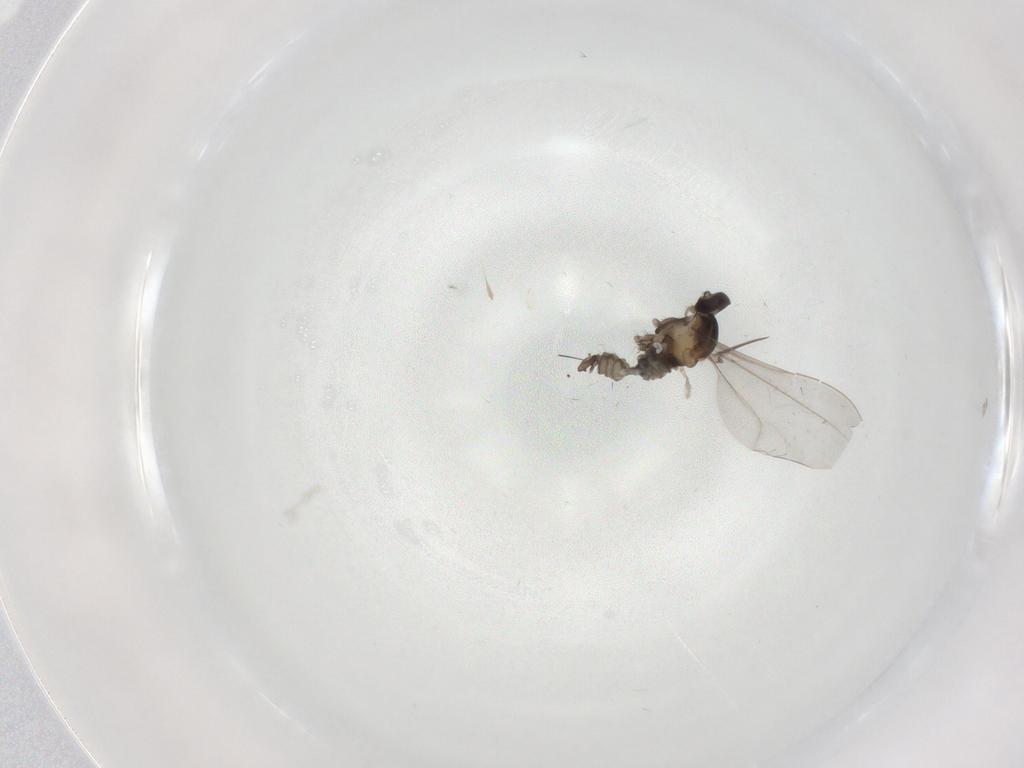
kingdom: Animalia
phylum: Arthropoda
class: Insecta
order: Diptera
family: Cecidomyiidae
